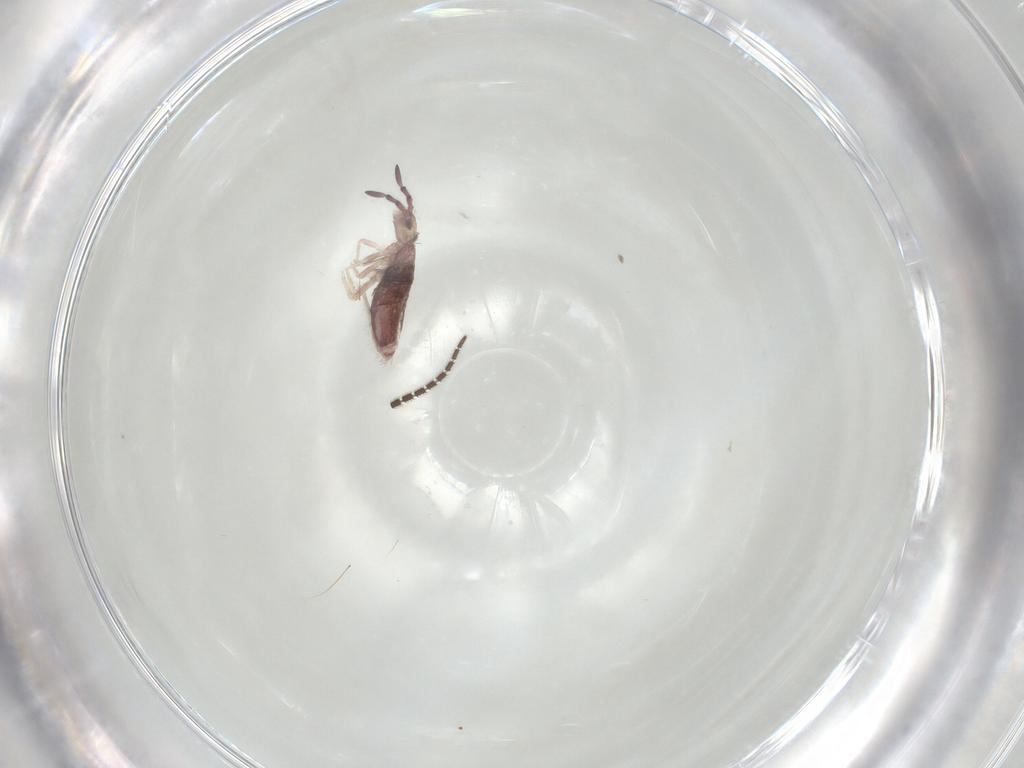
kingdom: Animalia
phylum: Arthropoda
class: Collembola
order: Entomobryomorpha
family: Entomobryidae
